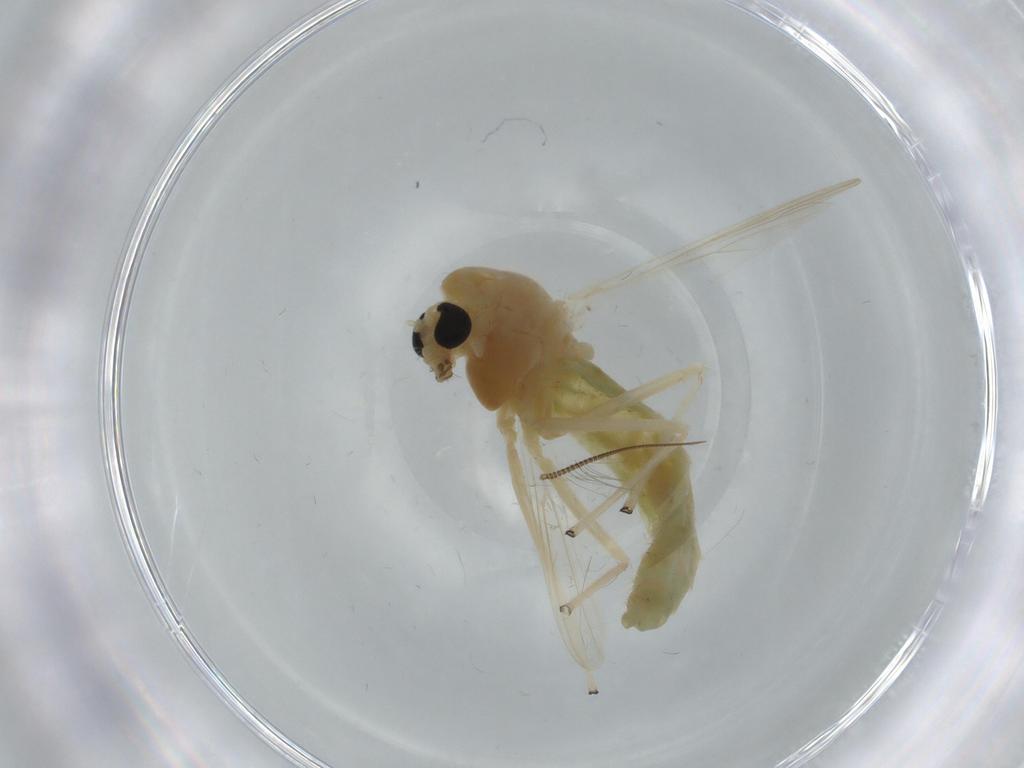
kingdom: Animalia
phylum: Arthropoda
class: Insecta
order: Diptera
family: Chironomidae
